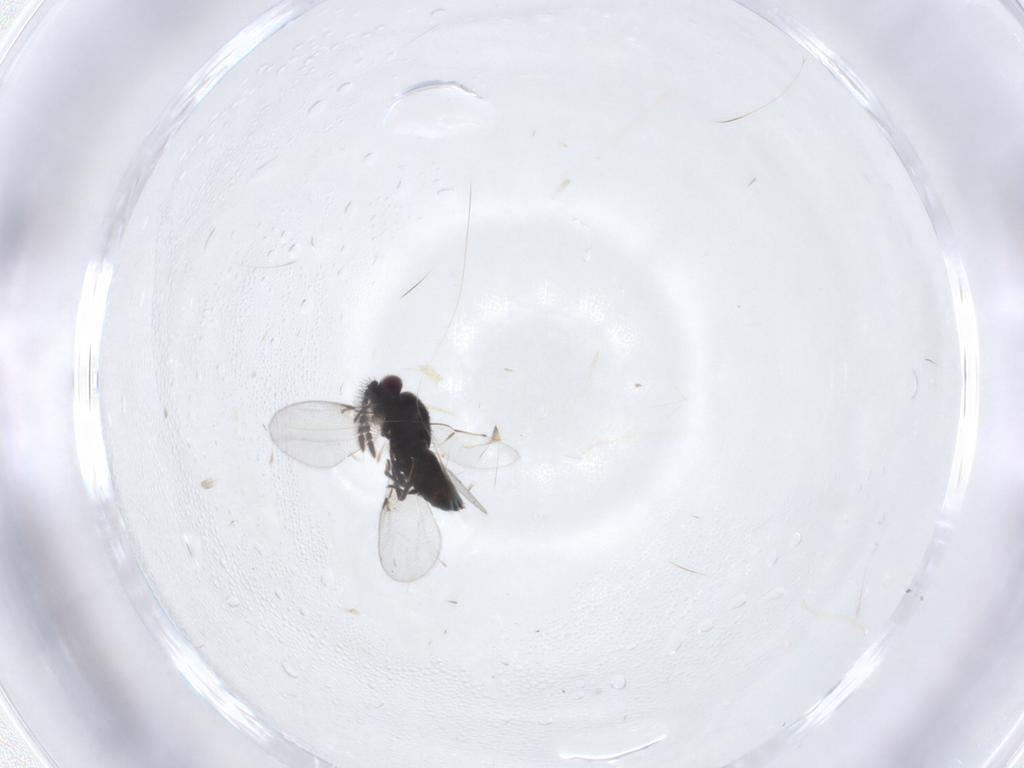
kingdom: Animalia
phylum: Arthropoda
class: Insecta
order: Hymenoptera
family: Encyrtidae
